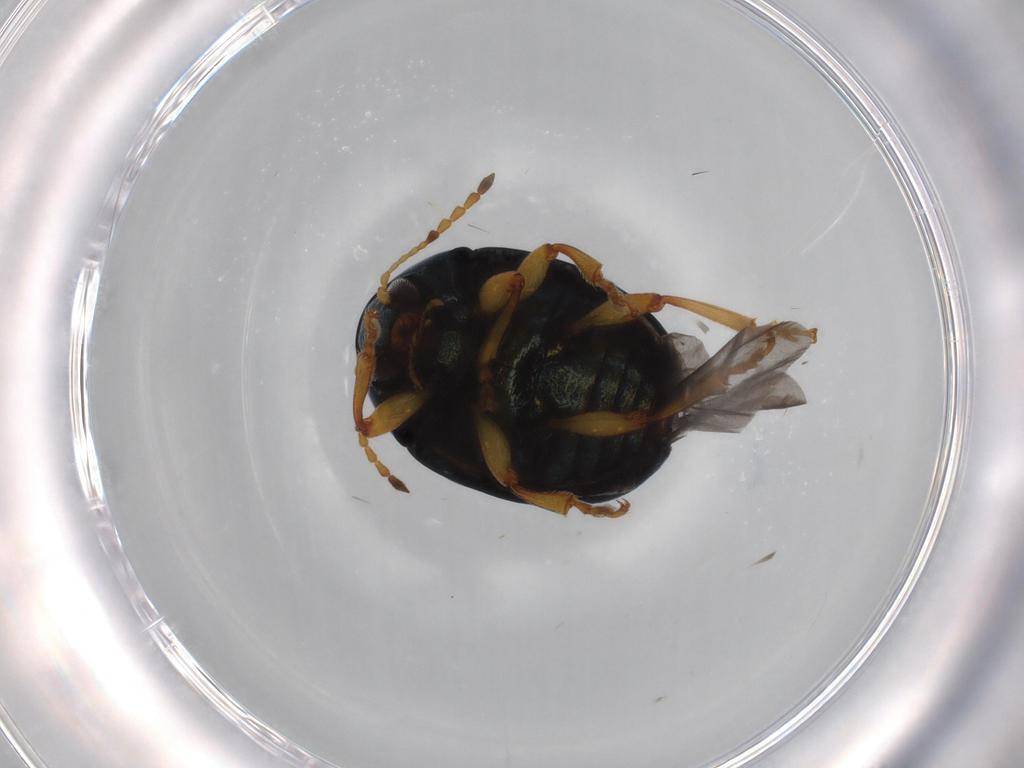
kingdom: Animalia
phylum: Arthropoda
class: Insecta
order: Coleoptera
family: Chrysomelidae
